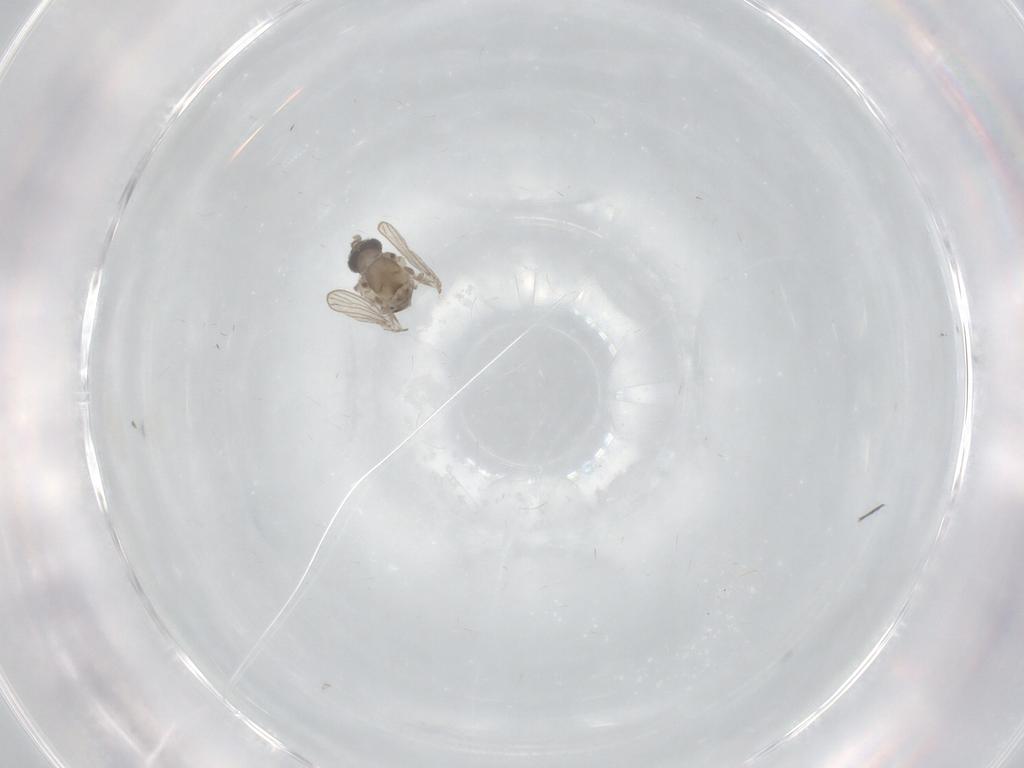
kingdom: Animalia
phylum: Arthropoda
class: Insecta
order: Diptera
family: Psychodidae
